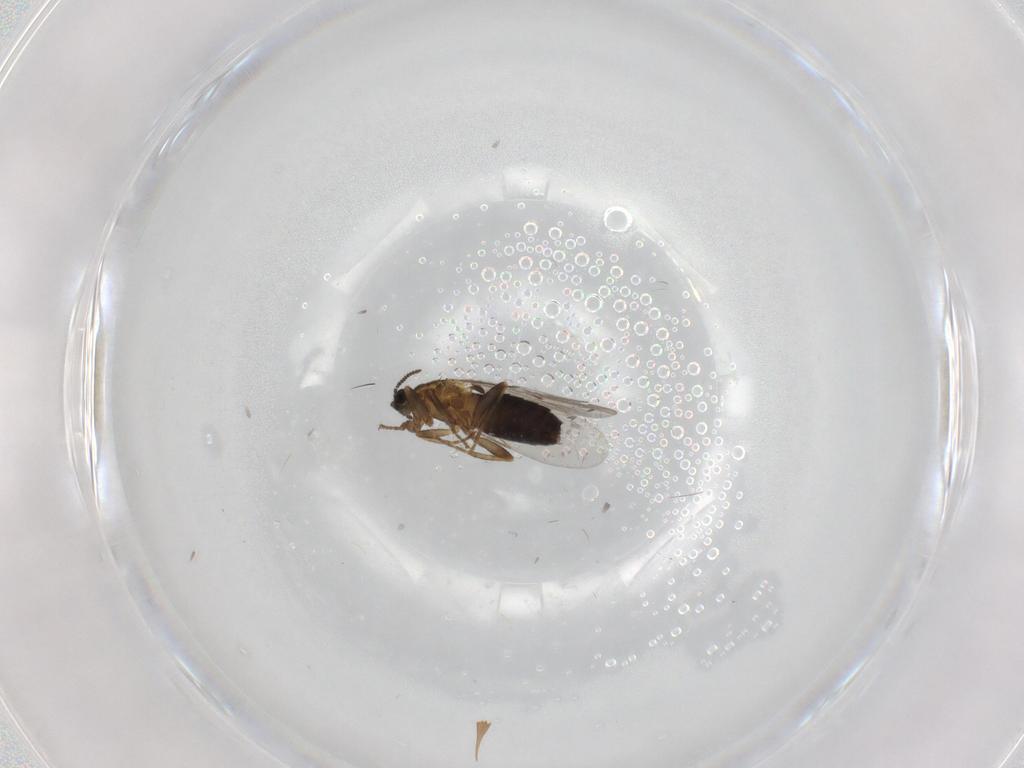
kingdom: Animalia
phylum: Arthropoda
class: Insecta
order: Diptera
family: Scatopsidae
